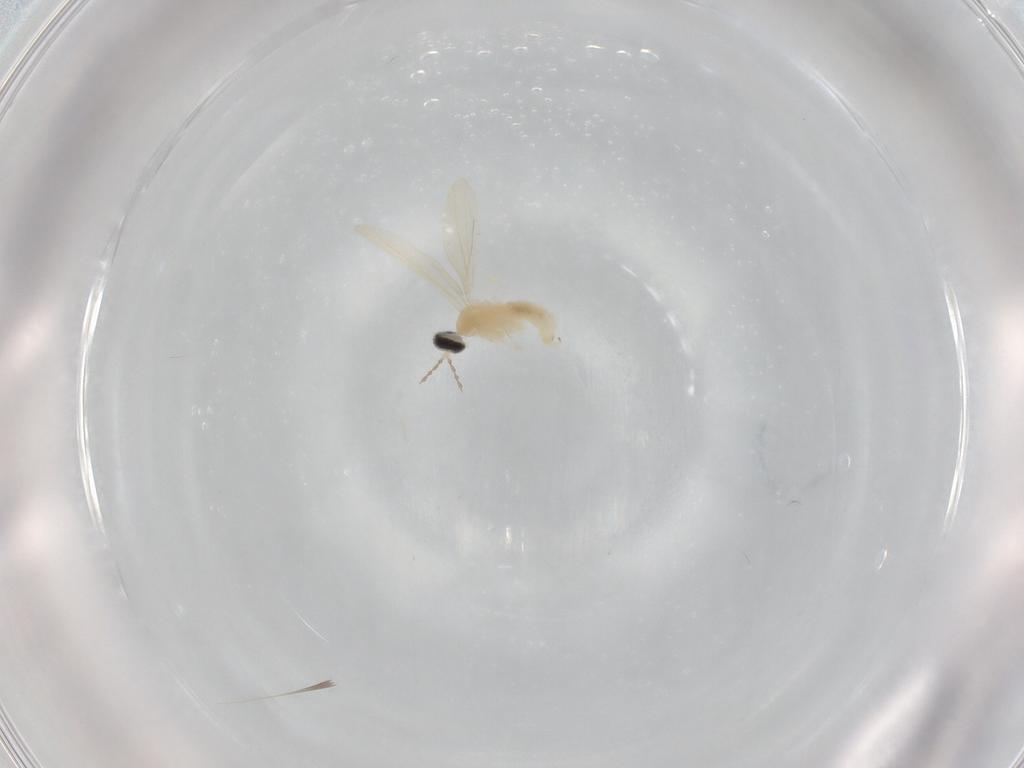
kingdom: Animalia
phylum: Arthropoda
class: Insecta
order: Diptera
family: Cecidomyiidae
